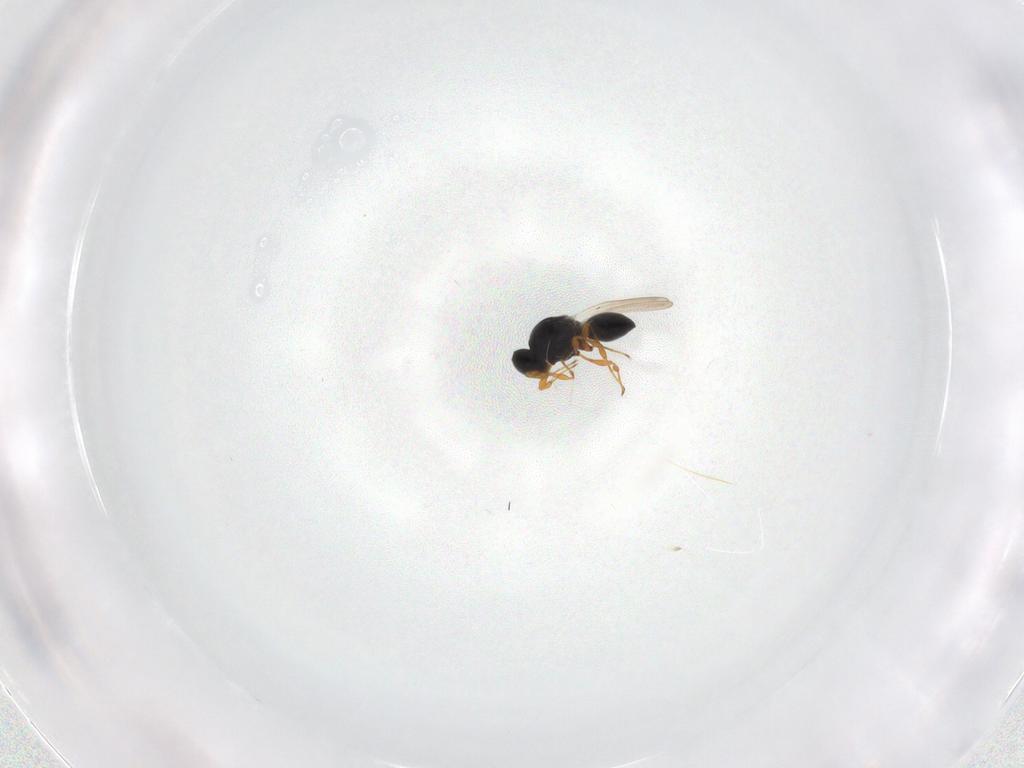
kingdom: Animalia
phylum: Arthropoda
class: Insecta
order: Hymenoptera
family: Platygastridae
